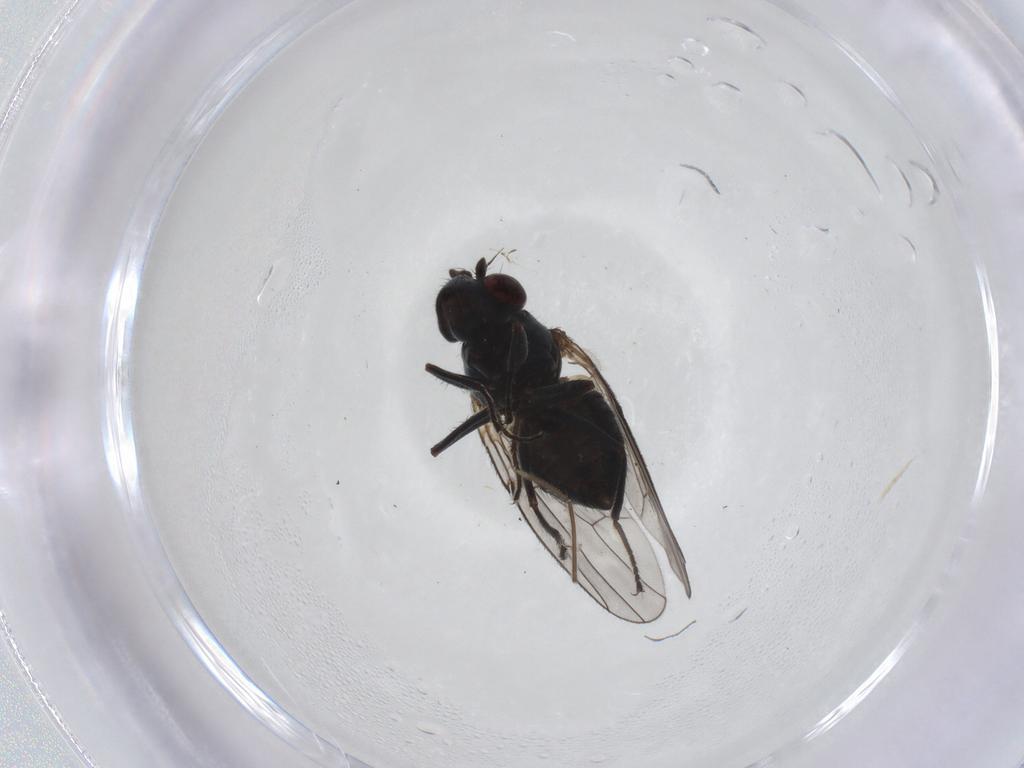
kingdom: Animalia
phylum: Arthropoda
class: Insecta
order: Diptera
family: Ephydridae
